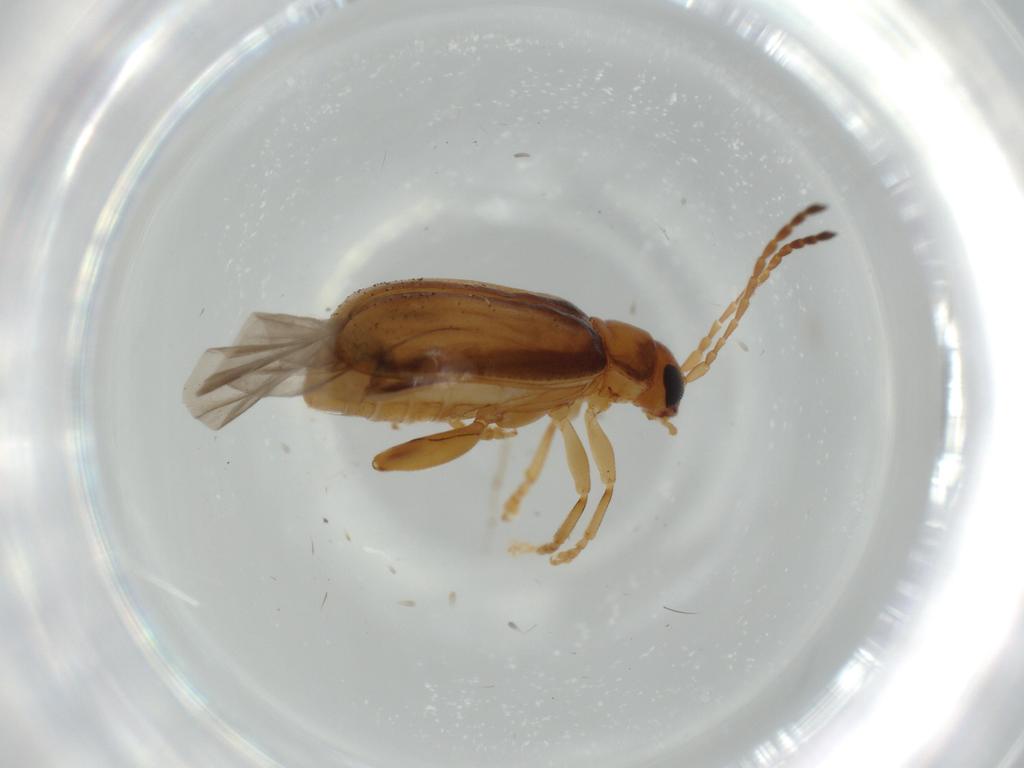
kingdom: Animalia
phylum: Arthropoda
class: Insecta
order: Coleoptera
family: Chrysomelidae
